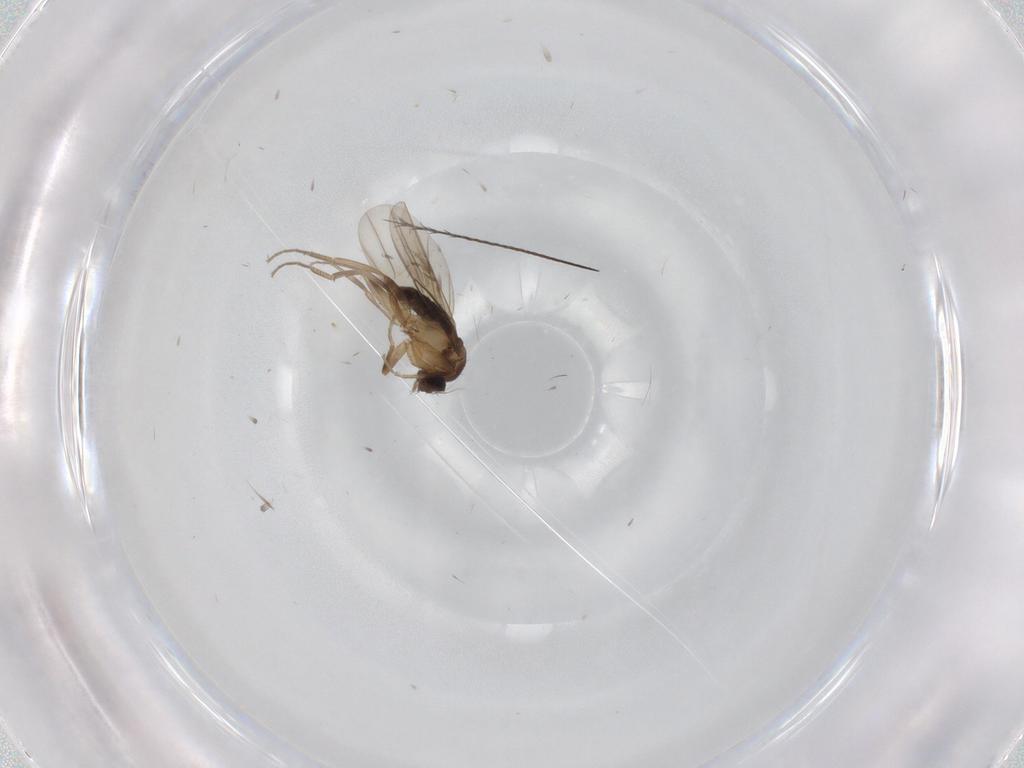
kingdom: Animalia
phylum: Arthropoda
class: Insecta
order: Diptera
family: Phoridae
